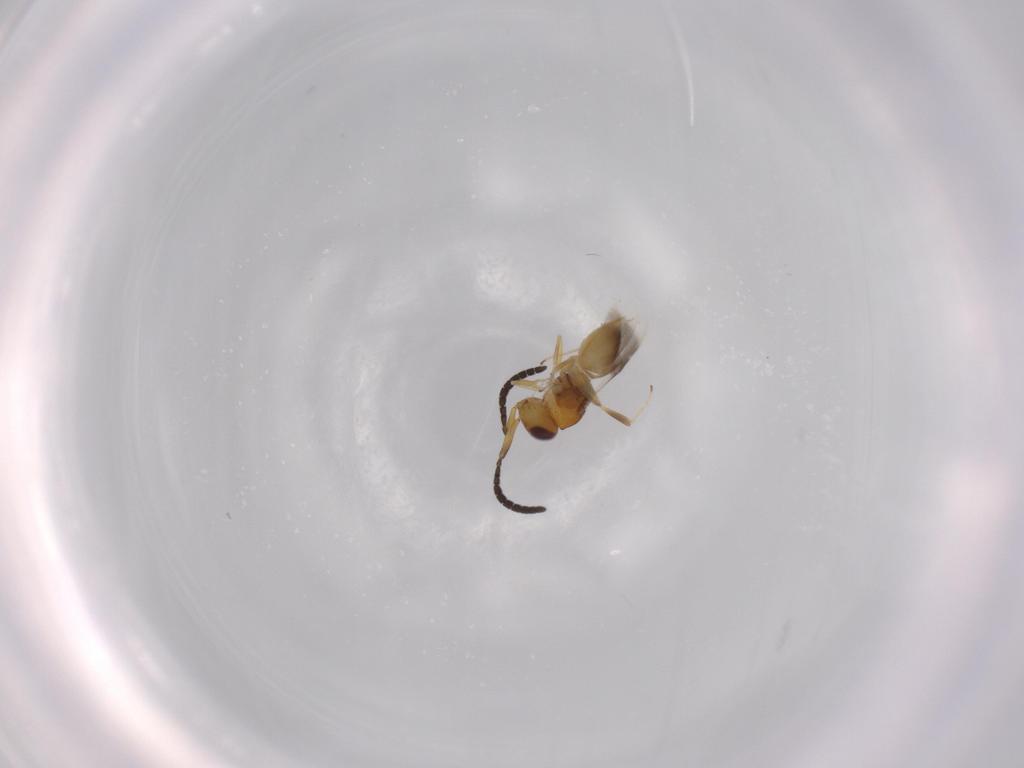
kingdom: Animalia
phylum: Arthropoda
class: Insecta
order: Hymenoptera
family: Megaspilidae
